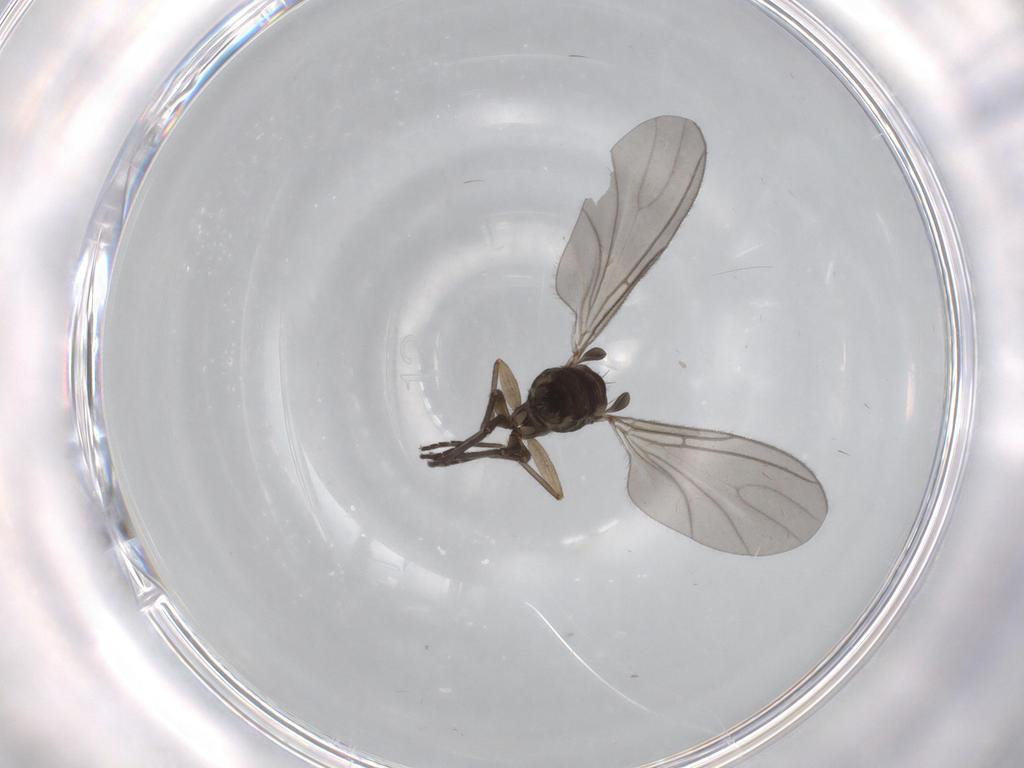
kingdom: Animalia
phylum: Arthropoda
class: Insecta
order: Diptera
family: Sciaridae
